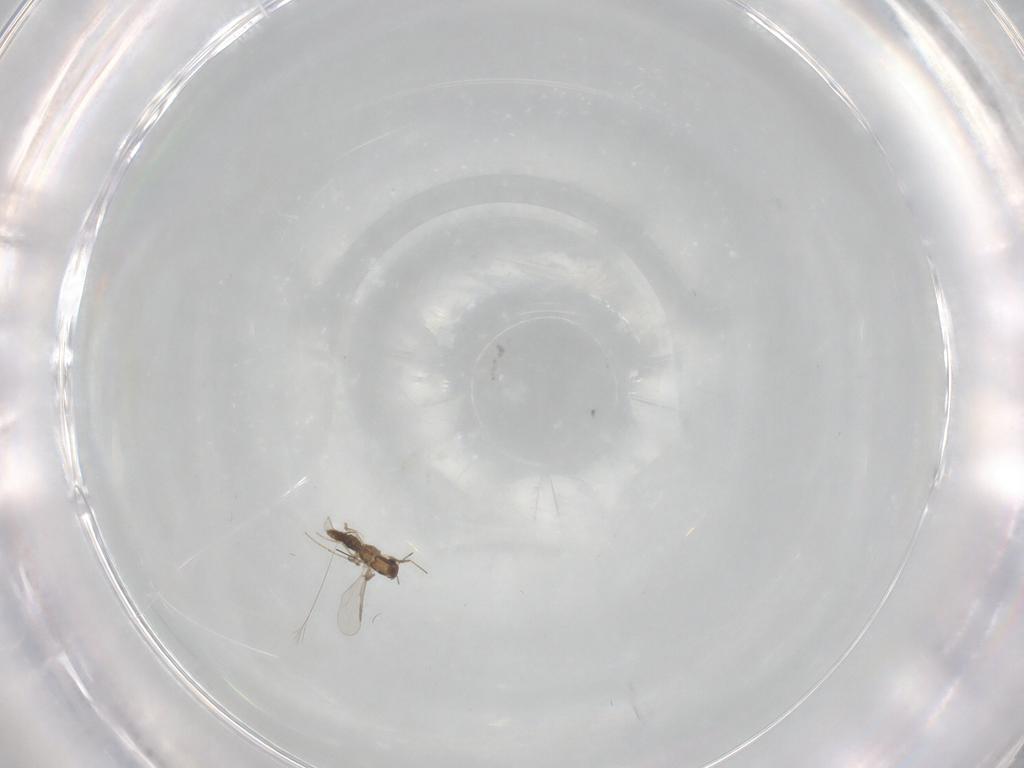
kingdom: Animalia
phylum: Arthropoda
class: Insecta
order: Diptera
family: Chironomidae
